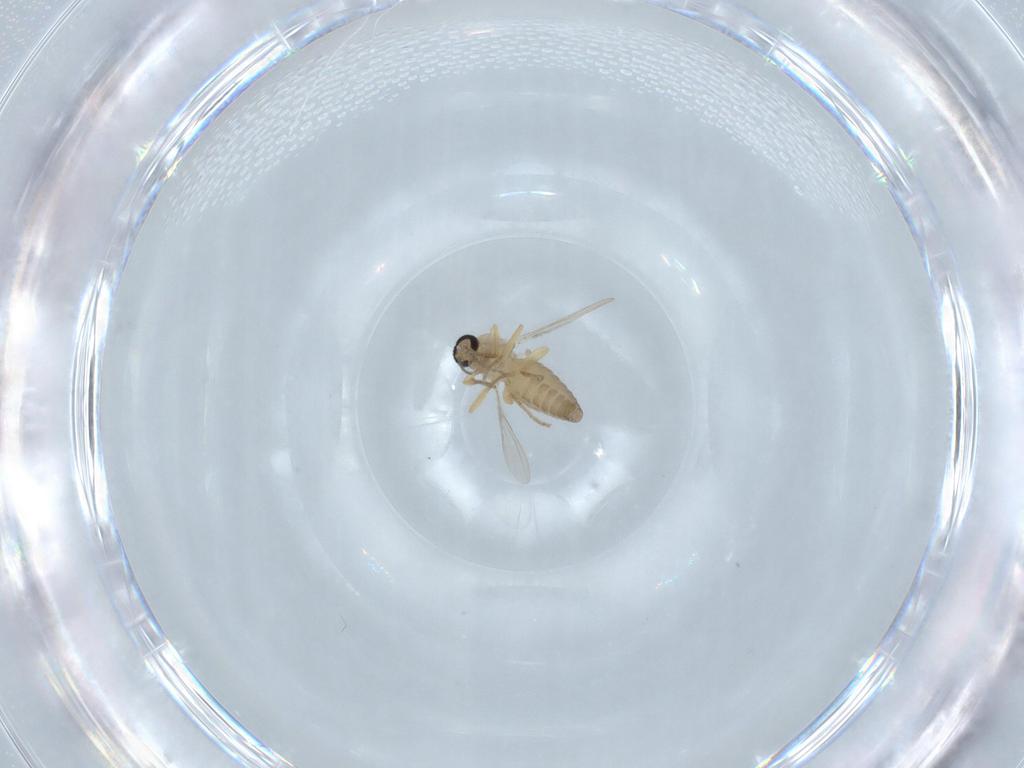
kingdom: Animalia
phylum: Arthropoda
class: Insecta
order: Diptera
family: Ceratopogonidae
